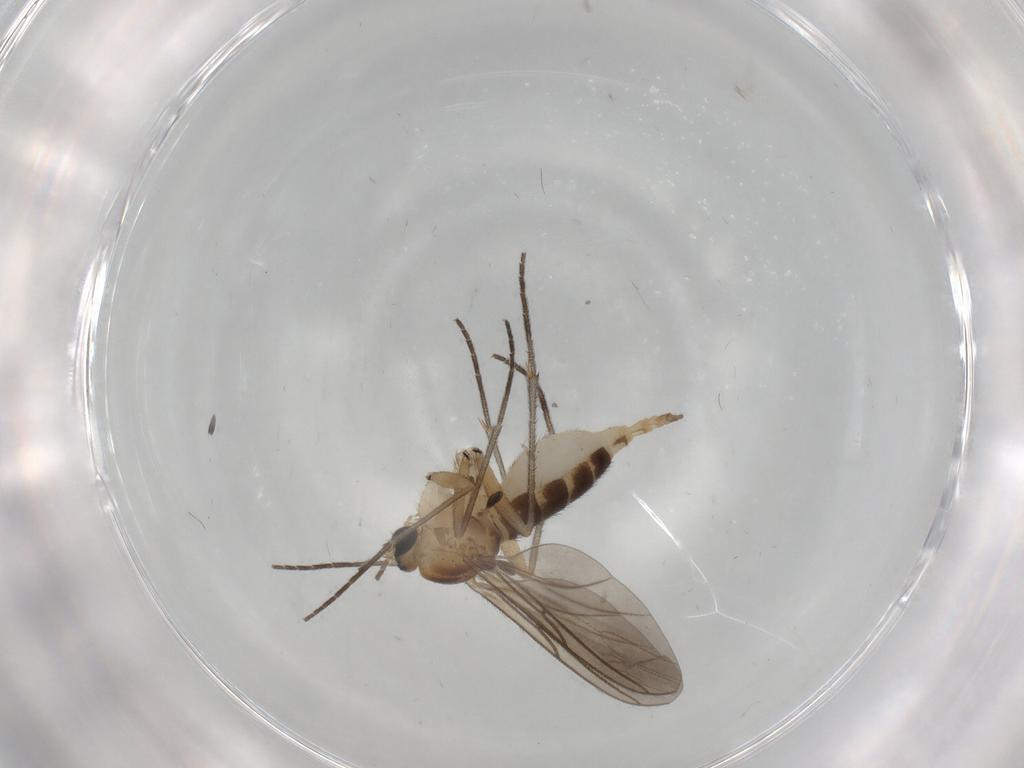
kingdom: Animalia
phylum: Arthropoda
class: Insecta
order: Diptera
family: Sciaridae
